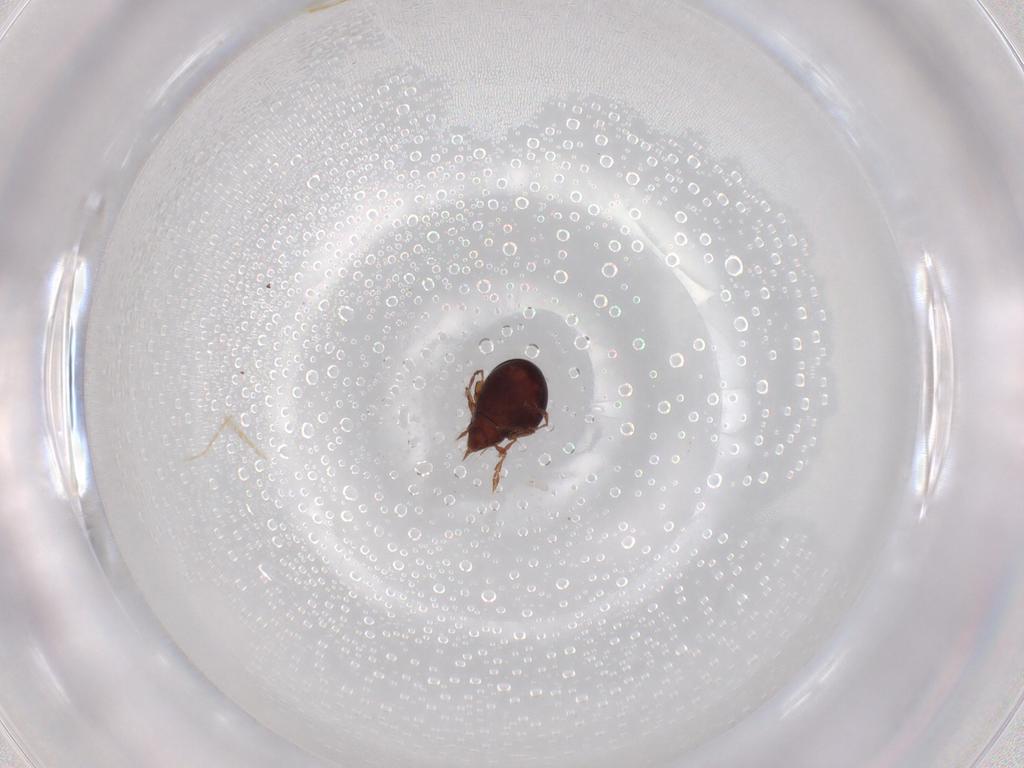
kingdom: Animalia
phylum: Arthropoda
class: Arachnida
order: Sarcoptiformes
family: Ceratoppiidae
